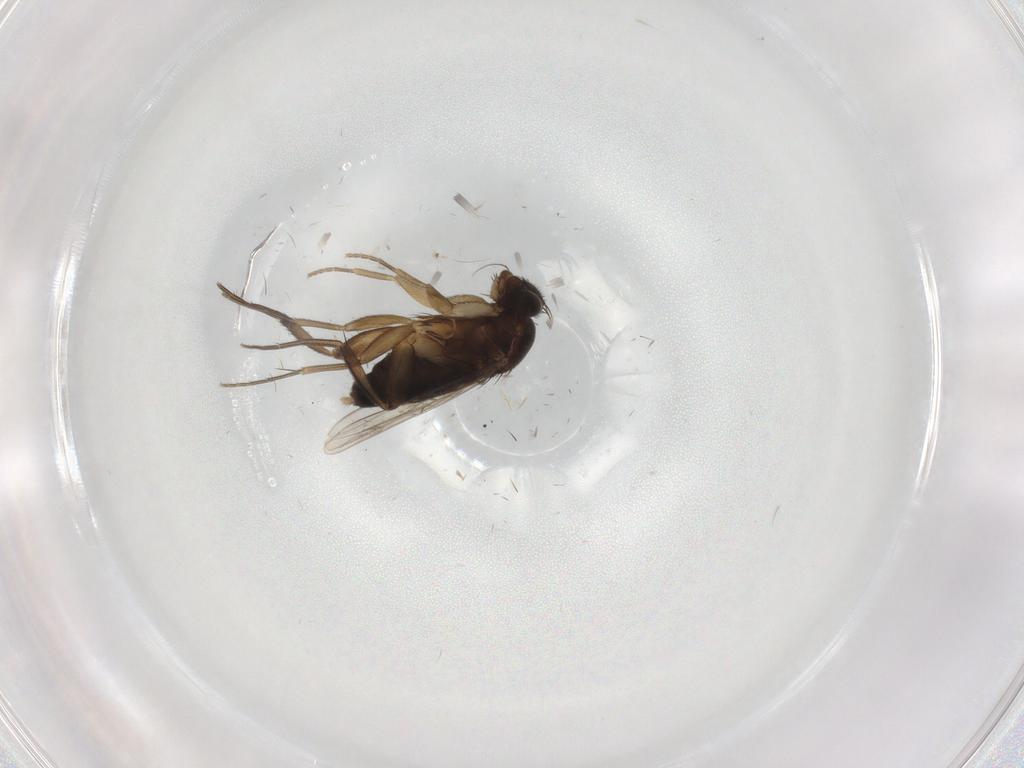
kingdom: Animalia
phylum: Arthropoda
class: Insecta
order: Diptera
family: Phoridae
